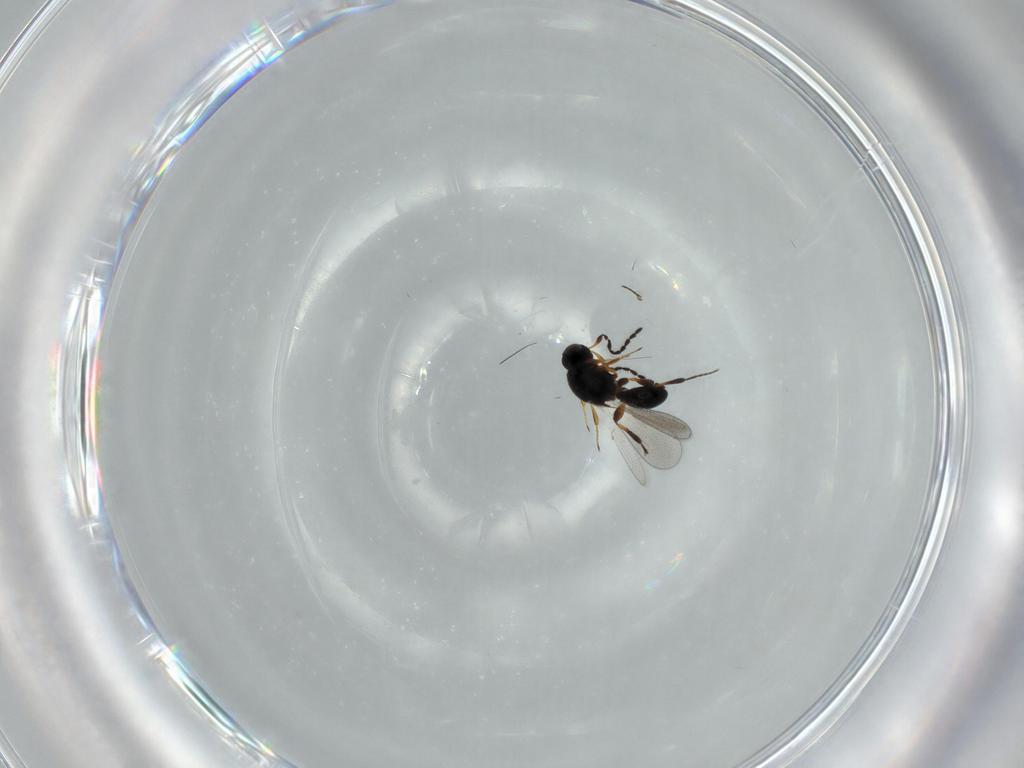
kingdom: Animalia
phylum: Arthropoda
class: Insecta
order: Hymenoptera
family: Platygastridae
